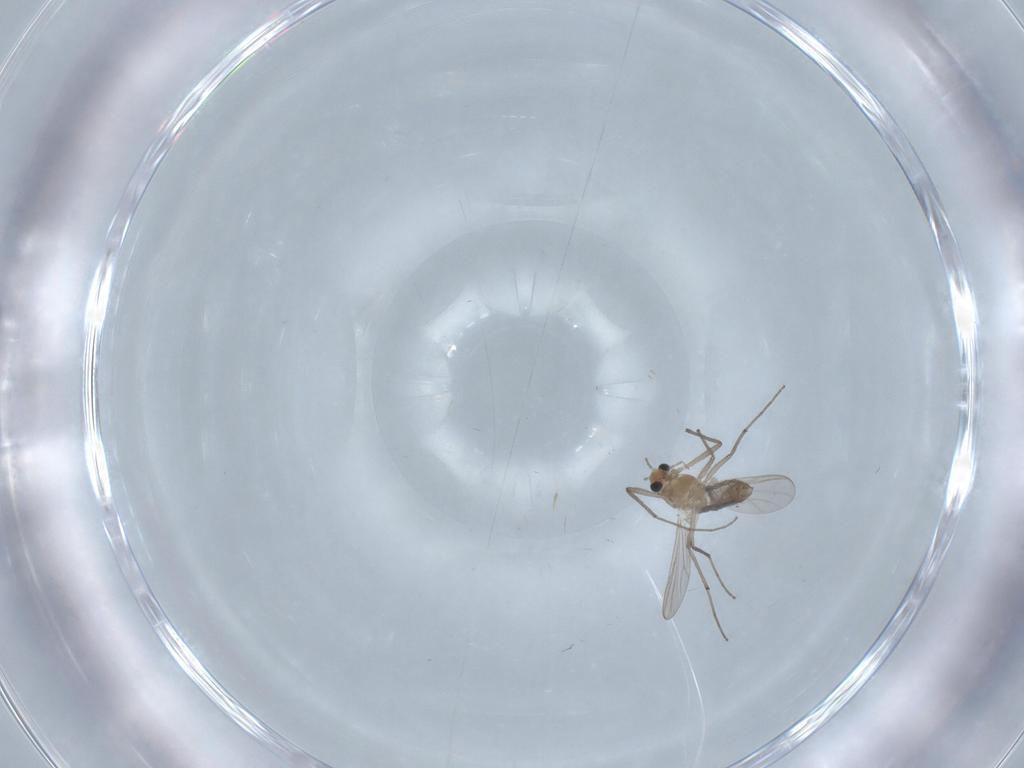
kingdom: Animalia
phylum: Arthropoda
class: Insecta
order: Diptera
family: Chironomidae
